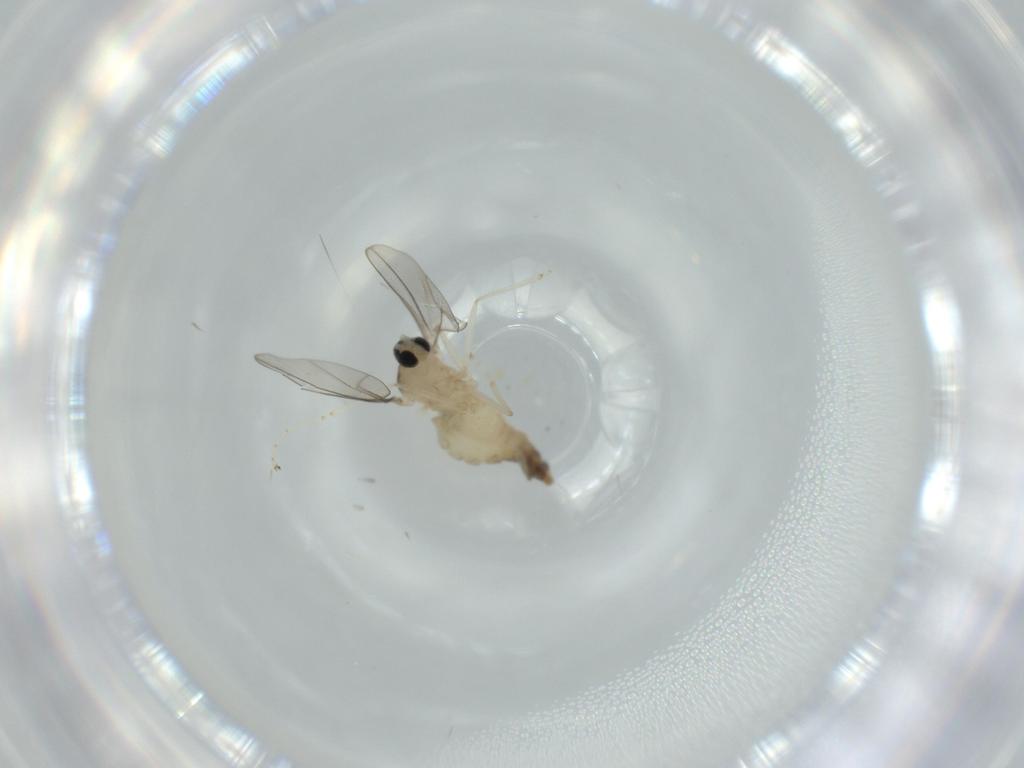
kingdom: Animalia
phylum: Arthropoda
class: Insecta
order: Diptera
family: Cecidomyiidae
